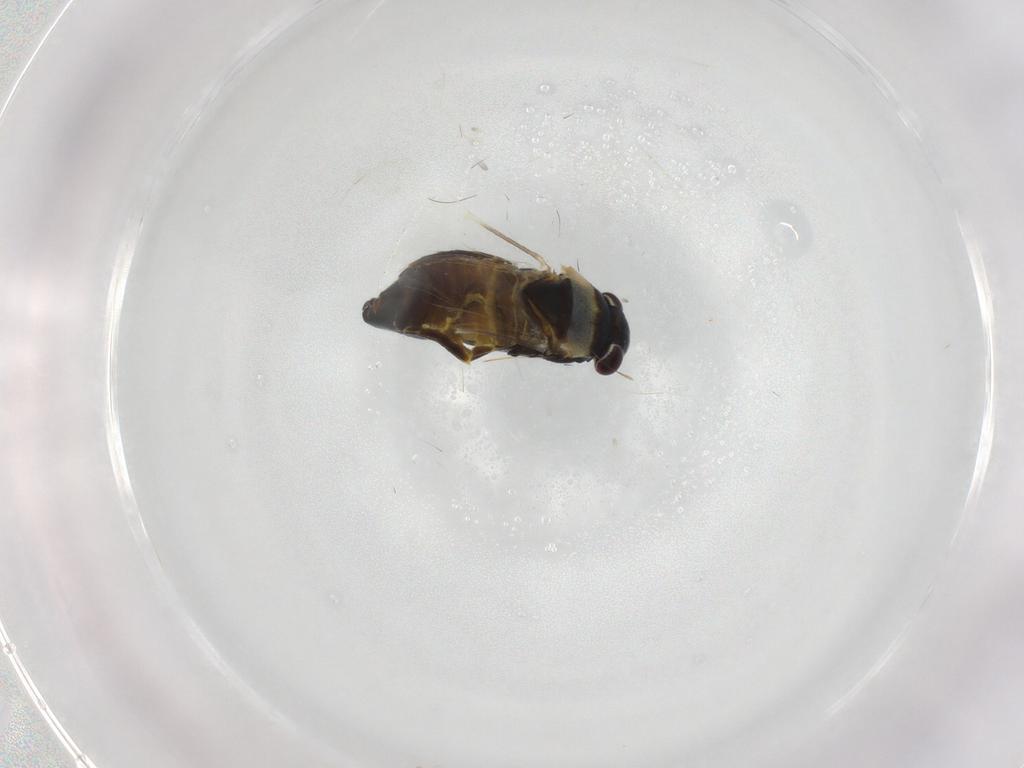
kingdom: Animalia
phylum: Arthropoda
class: Insecta
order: Hemiptera
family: Miridae
